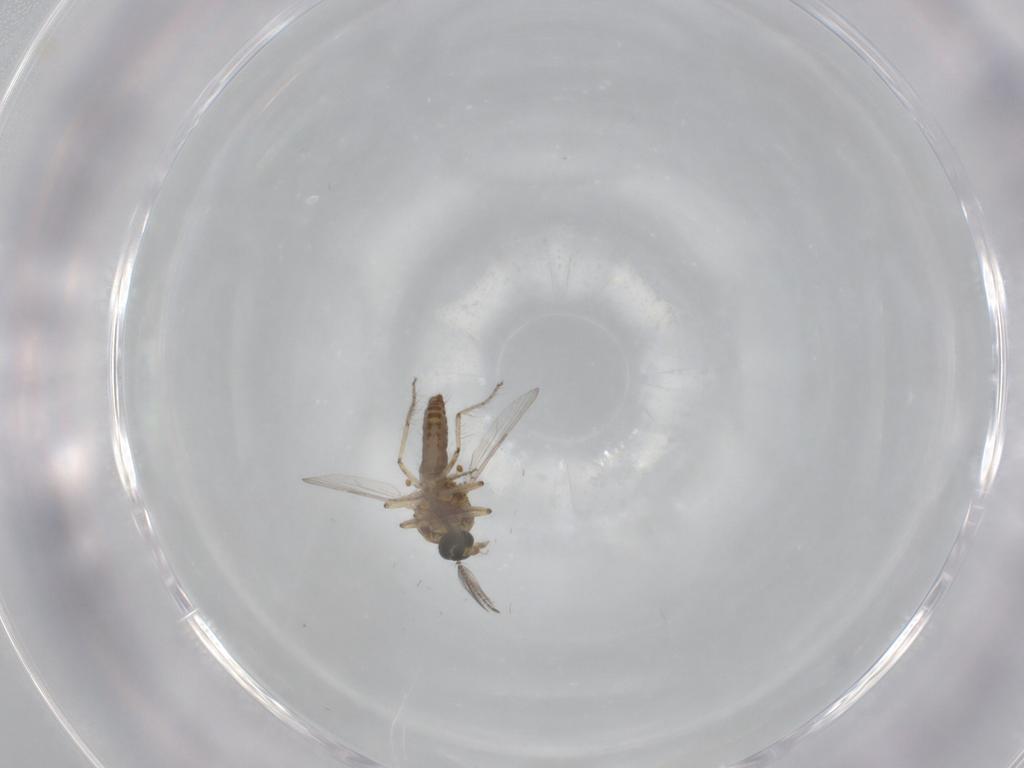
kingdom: Animalia
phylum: Arthropoda
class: Insecta
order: Diptera
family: Ceratopogonidae
